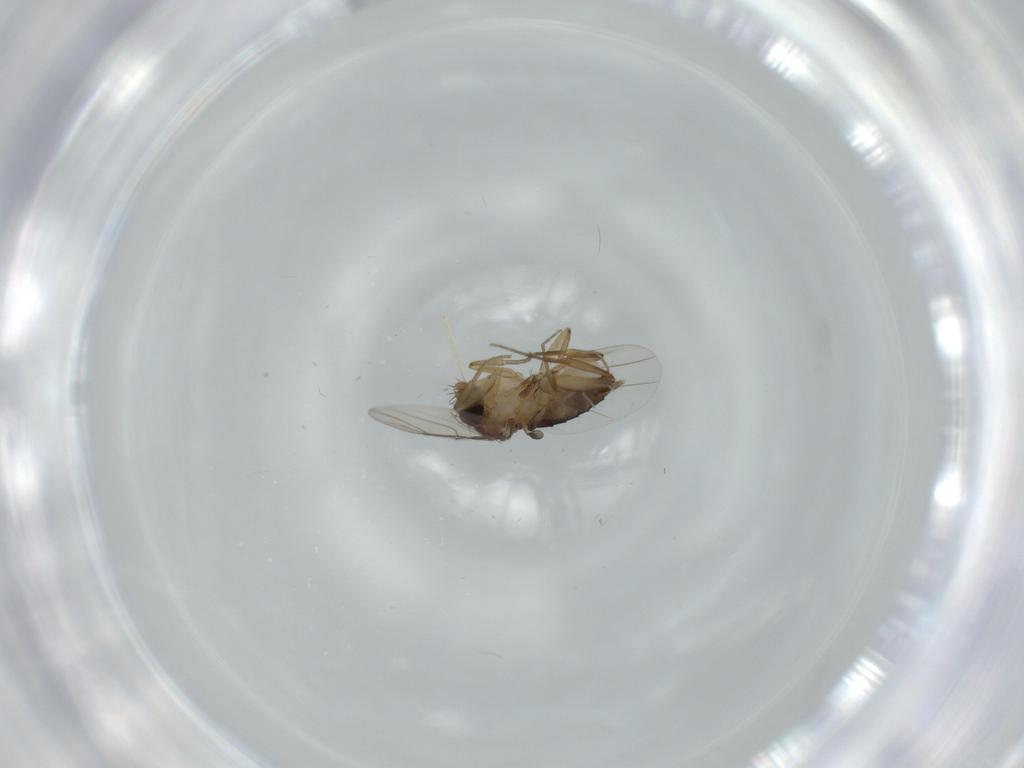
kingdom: Animalia
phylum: Arthropoda
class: Insecta
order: Diptera
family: Phoridae
